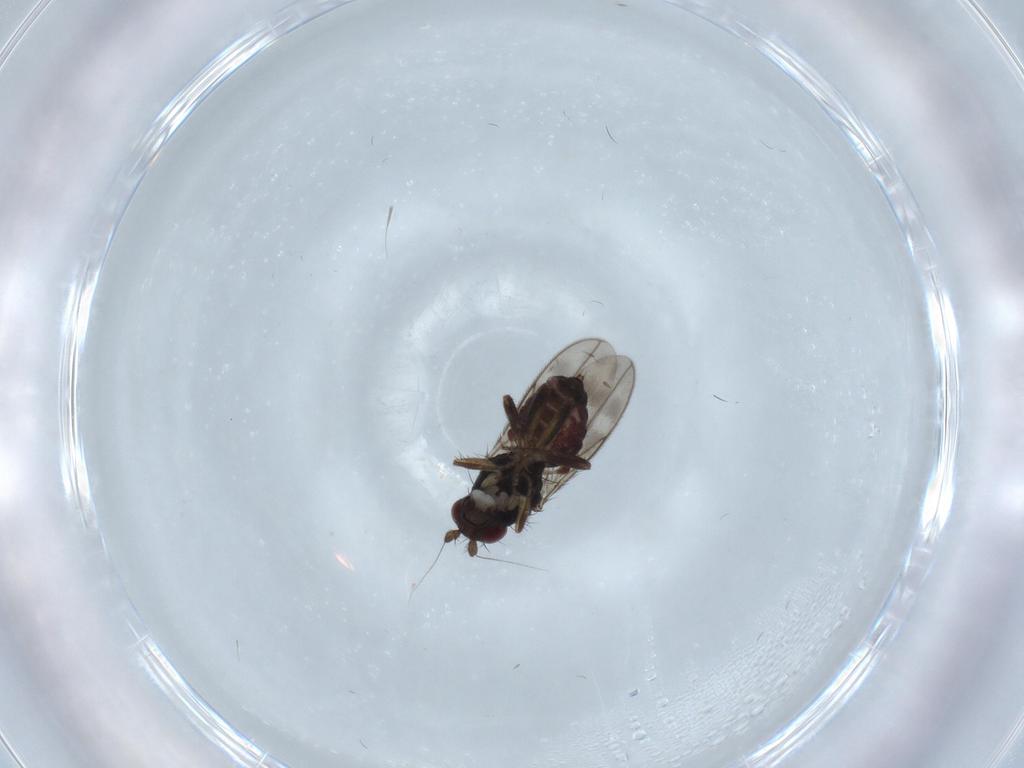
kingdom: Animalia
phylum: Arthropoda
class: Insecta
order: Diptera
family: Sphaeroceridae
